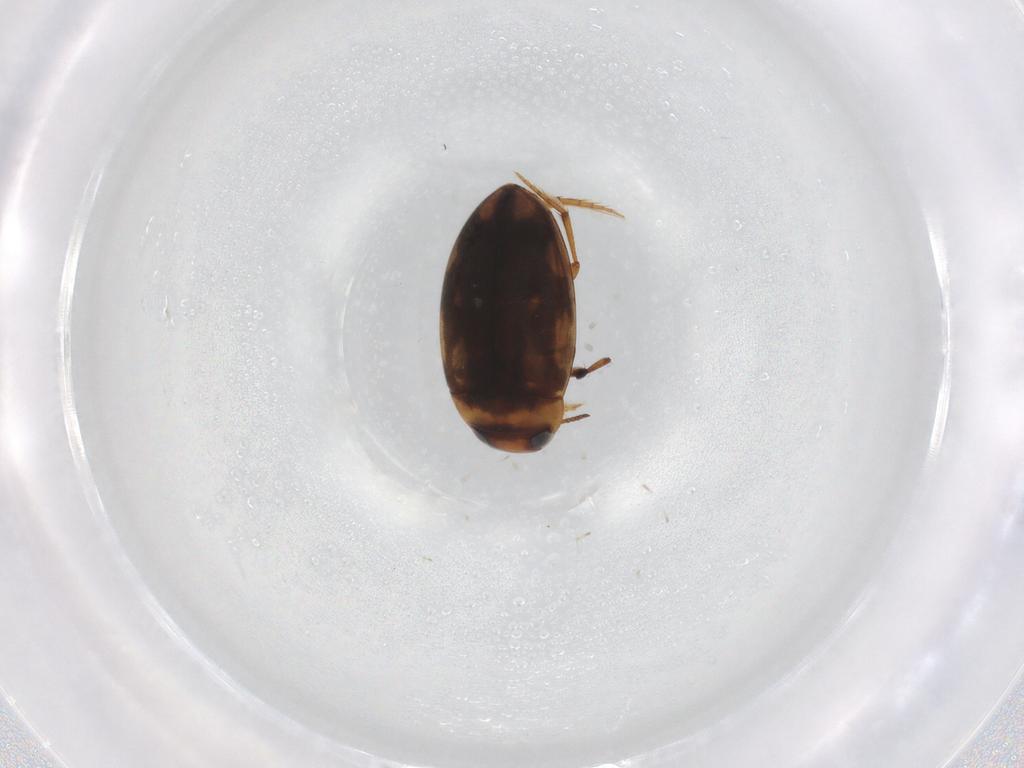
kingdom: Animalia
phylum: Arthropoda
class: Insecta
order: Coleoptera
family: Dytiscidae
